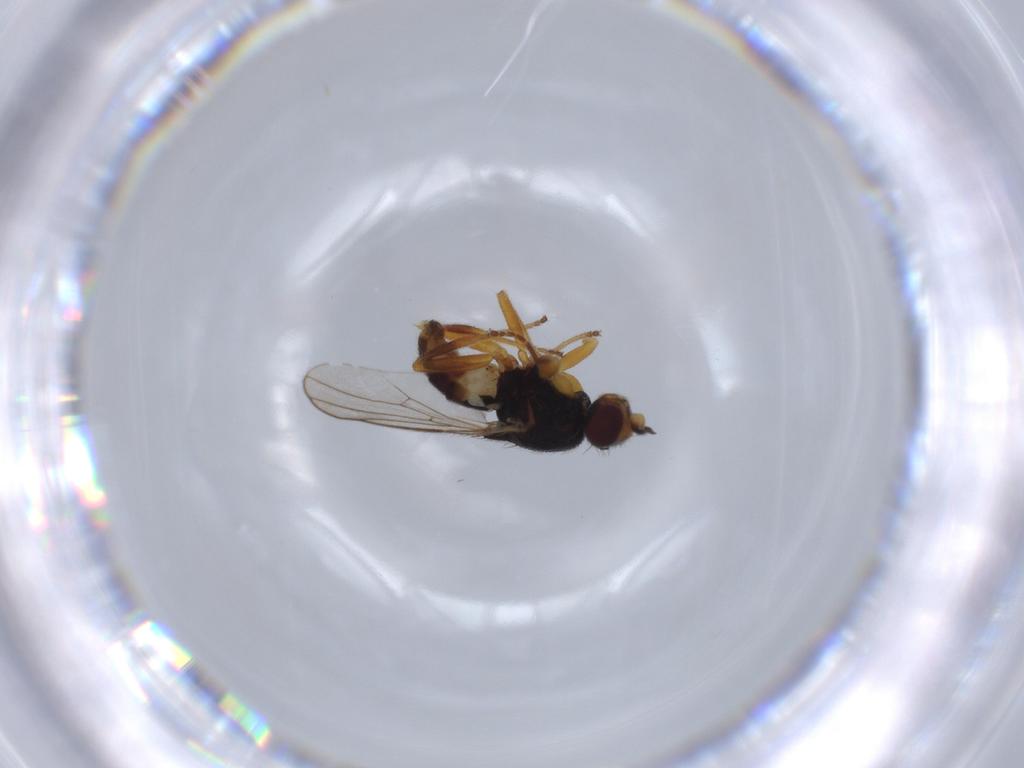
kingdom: Animalia
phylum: Arthropoda
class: Insecta
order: Diptera
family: Chloropidae
